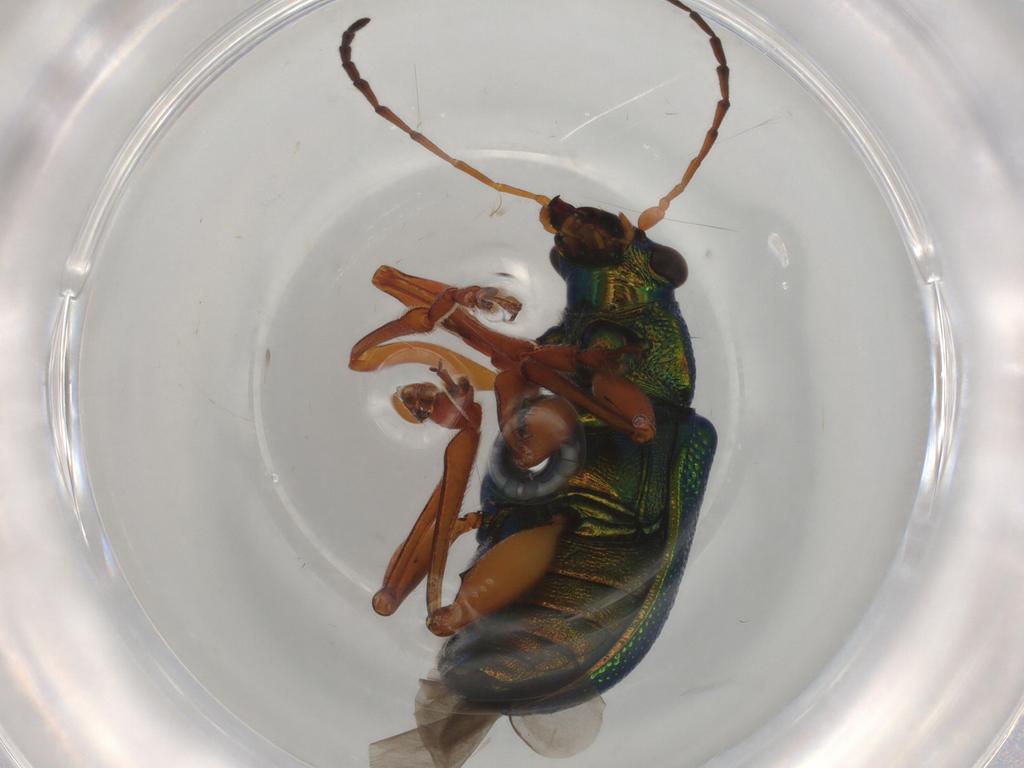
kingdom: Animalia
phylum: Arthropoda
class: Insecta
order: Coleoptera
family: Chrysomelidae
